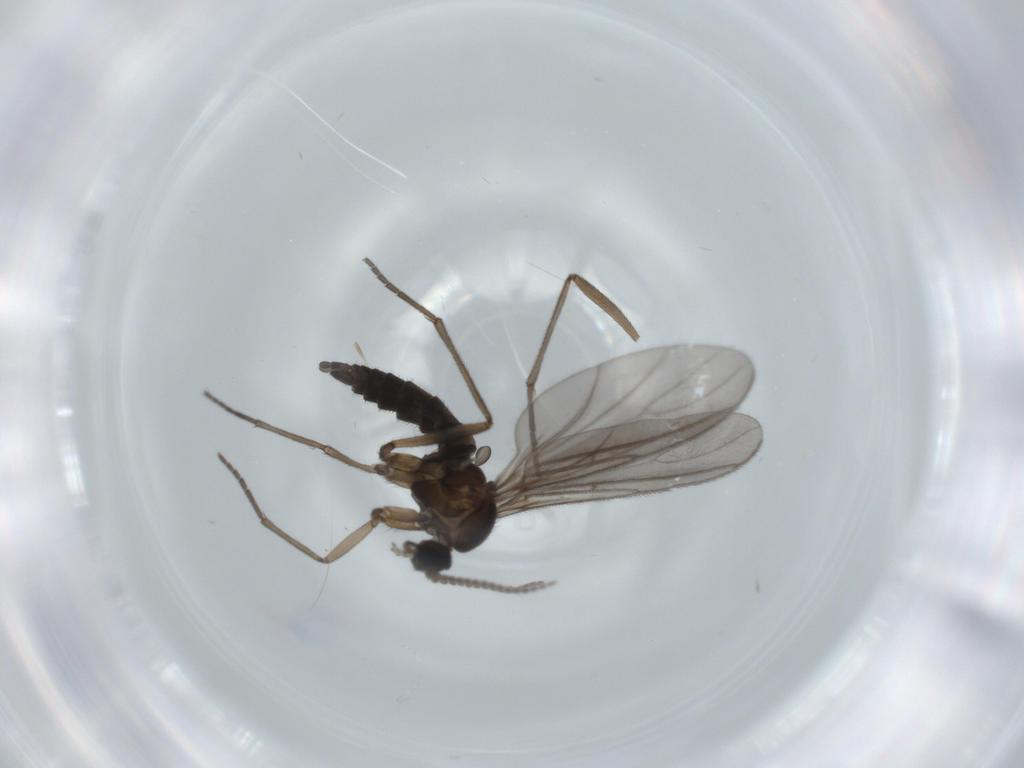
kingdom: Animalia
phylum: Arthropoda
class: Insecta
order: Diptera
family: Sciaridae
